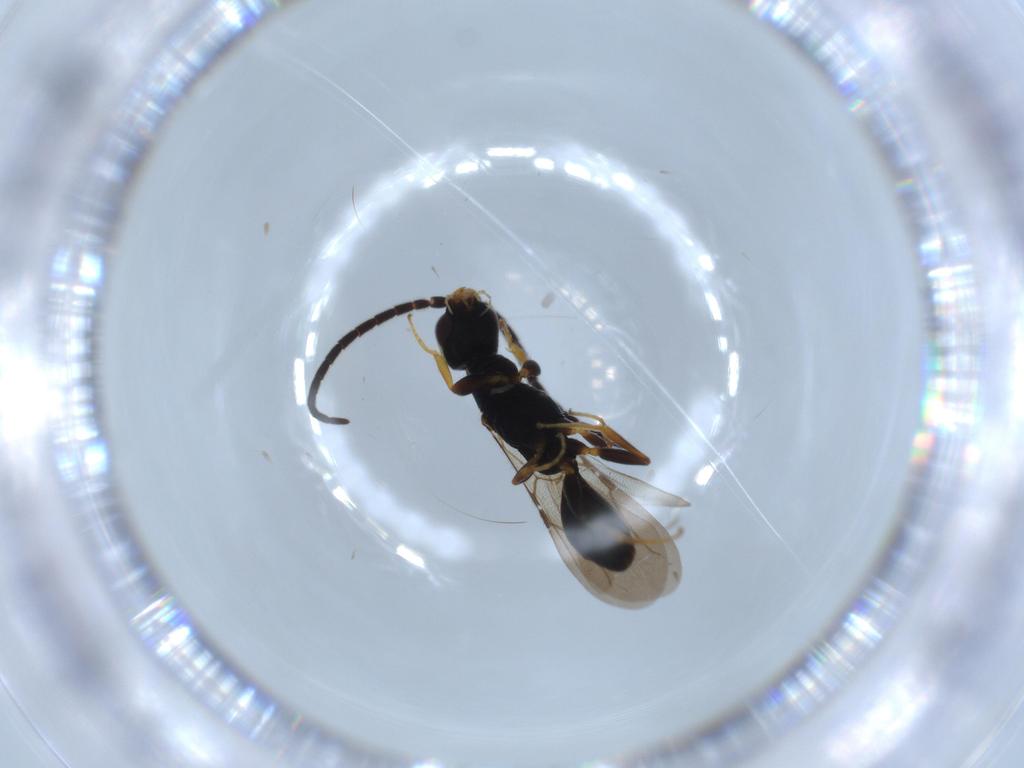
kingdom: Animalia
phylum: Arthropoda
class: Insecta
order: Hymenoptera
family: Bethylidae
